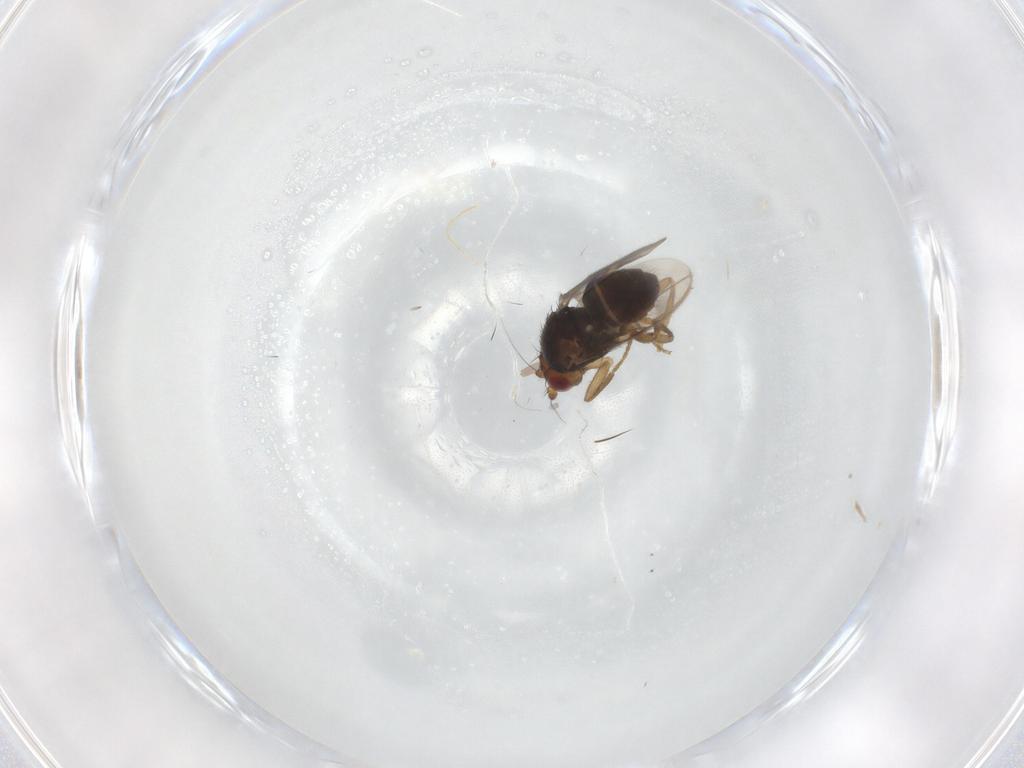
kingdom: Animalia
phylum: Arthropoda
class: Insecta
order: Diptera
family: Sphaeroceridae
